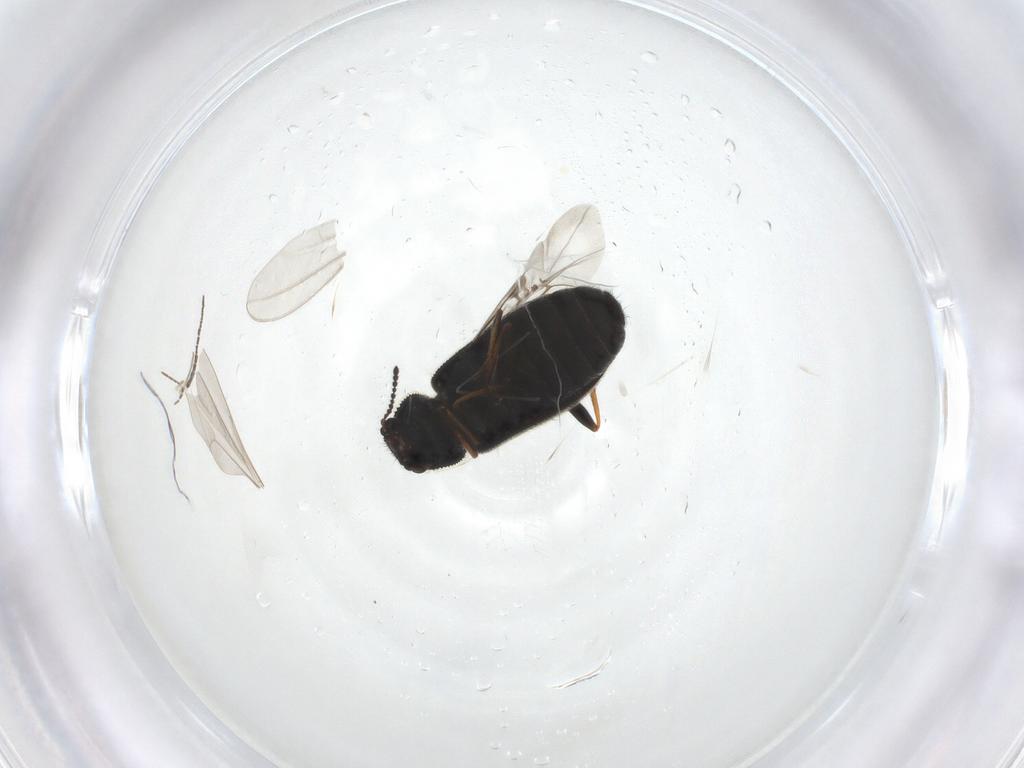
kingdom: Animalia
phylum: Arthropoda
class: Insecta
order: Coleoptera
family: Melyridae
